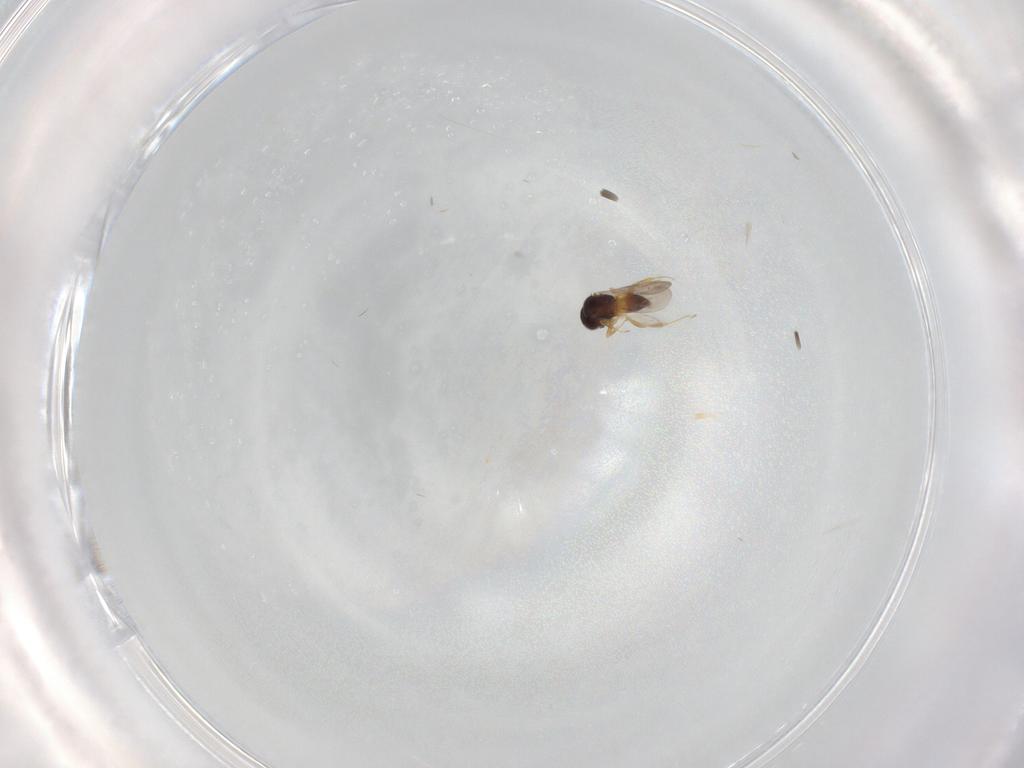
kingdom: Animalia
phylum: Arthropoda
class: Insecta
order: Hymenoptera
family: Ceraphronidae
